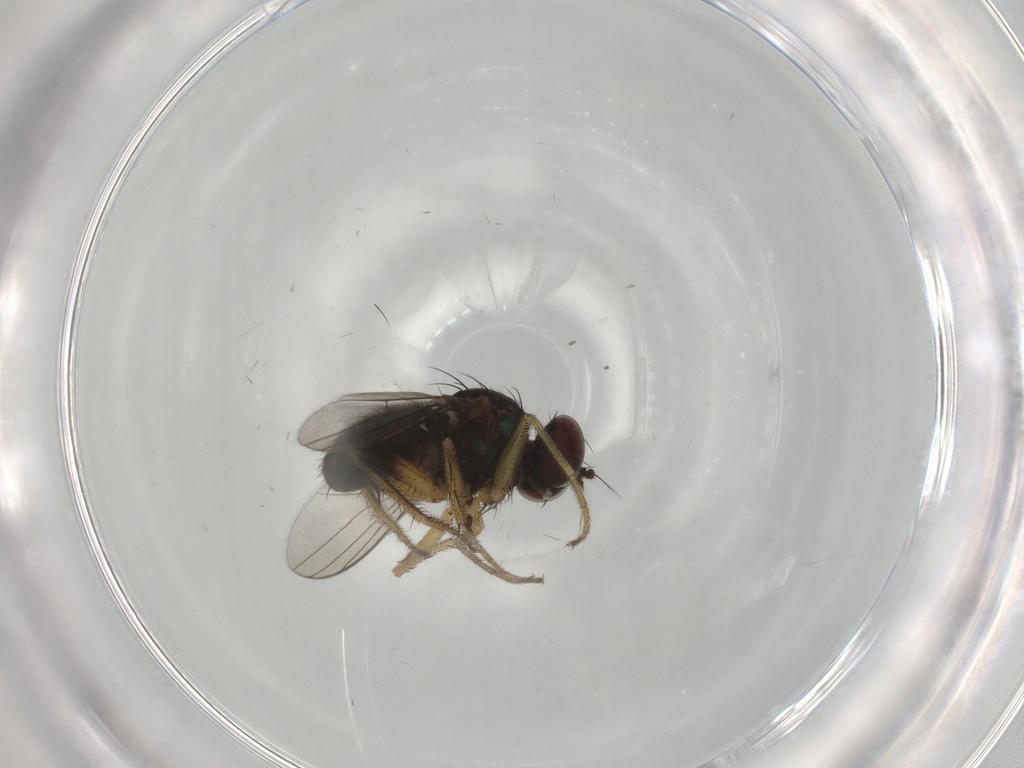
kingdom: Animalia
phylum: Arthropoda
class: Insecta
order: Diptera
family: Dolichopodidae
